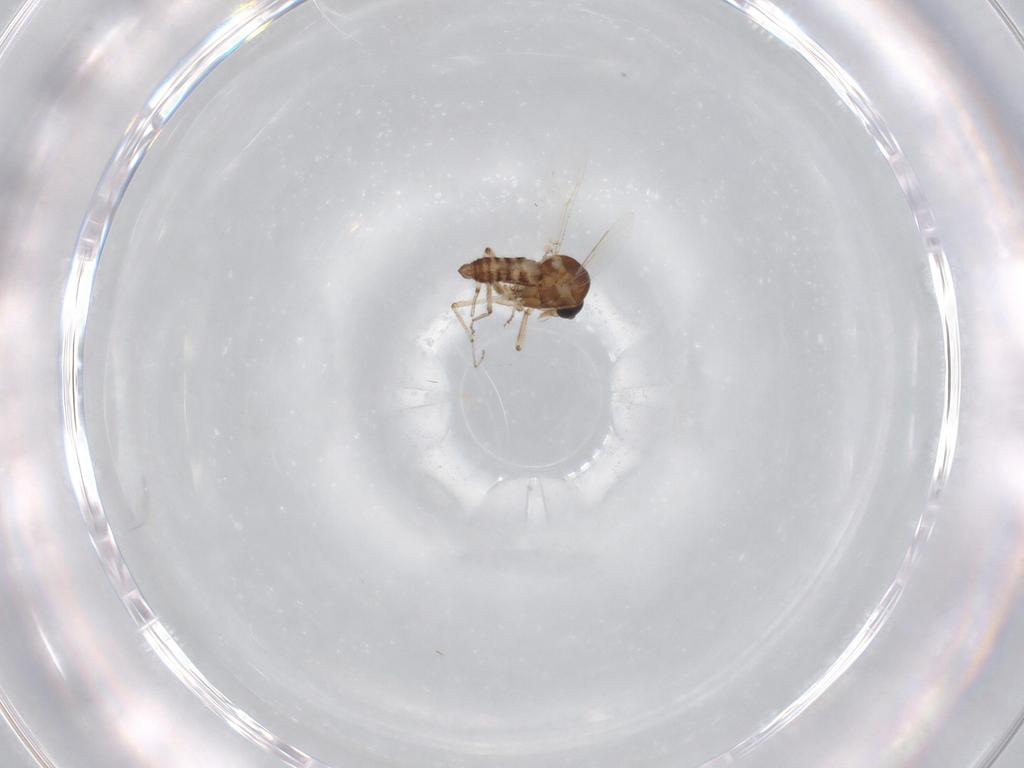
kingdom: Animalia
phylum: Arthropoda
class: Insecta
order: Diptera
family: Ceratopogonidae
